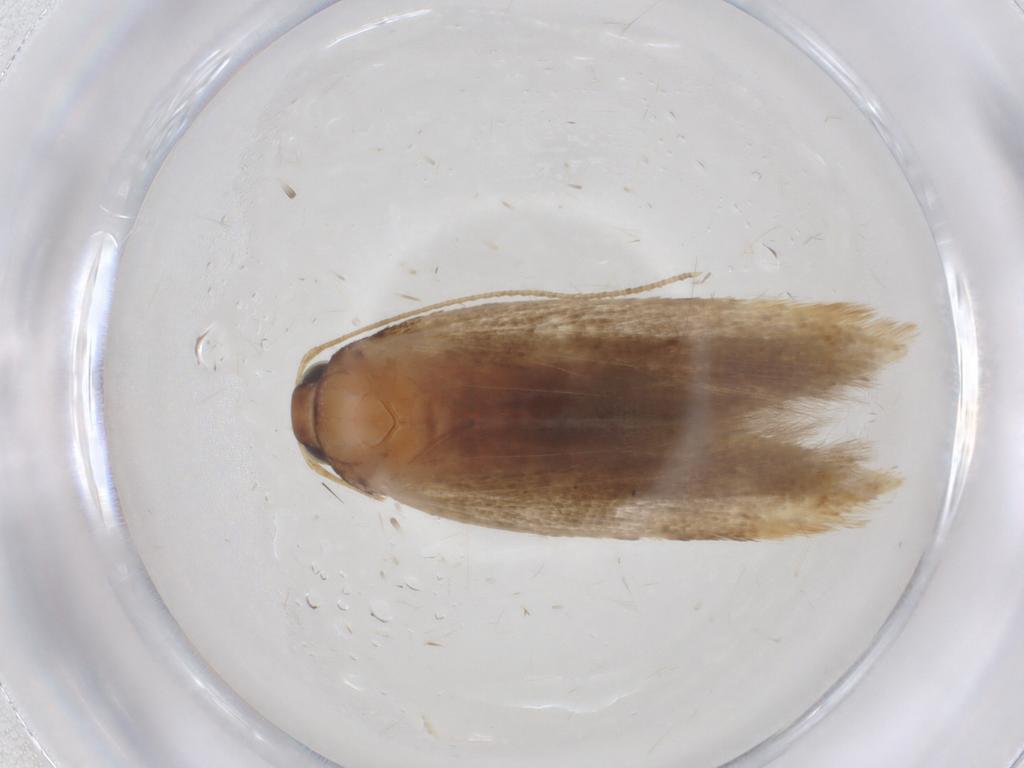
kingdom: Animalia
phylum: Arthropoda
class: Insecta
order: Lepidoptera
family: Gelechiidae
